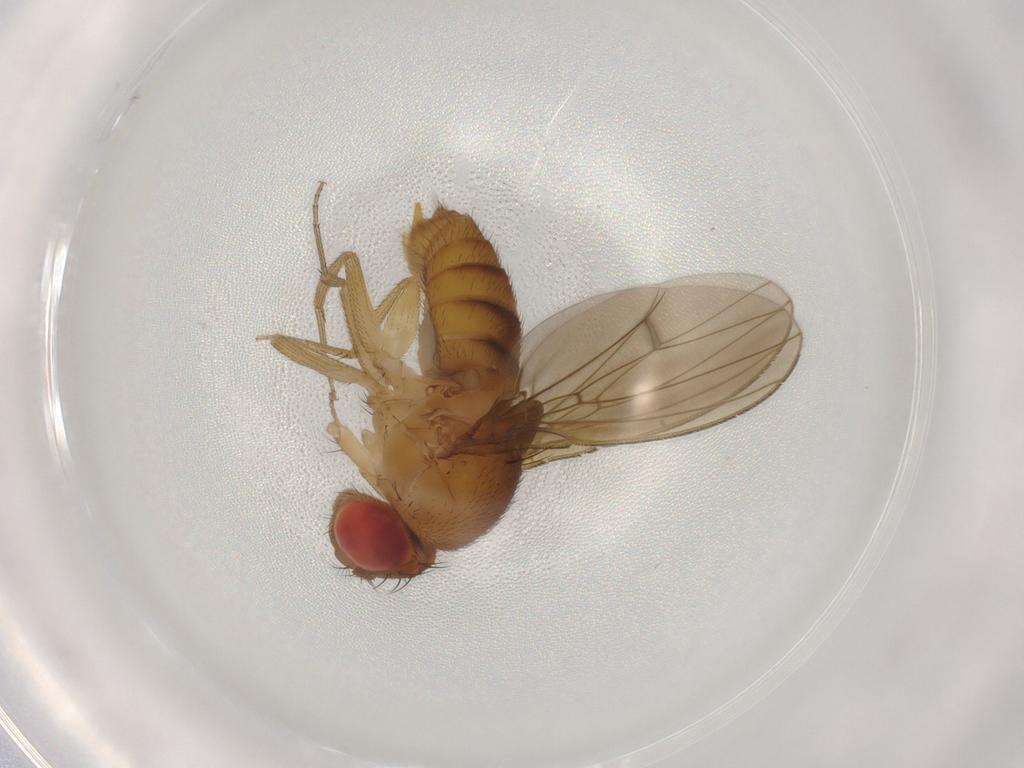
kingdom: Animalia
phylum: Arthropoda
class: Insecta
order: Diptera
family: Drosophilidae
